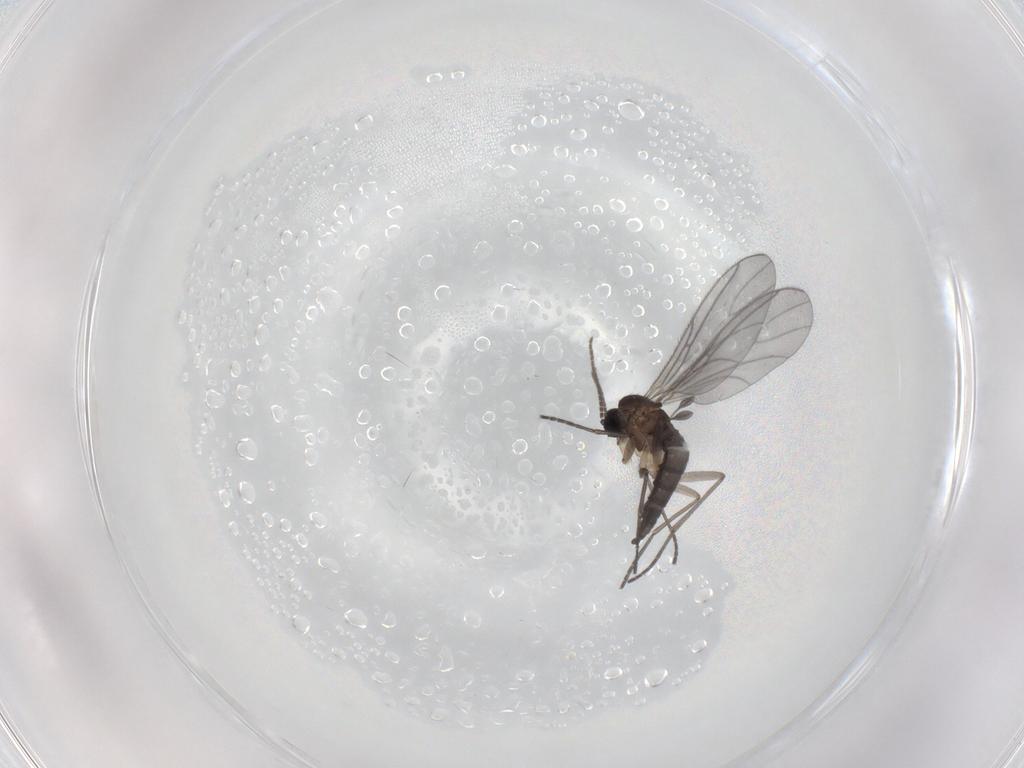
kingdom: Animalia
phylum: Arthropoda
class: Insecta
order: Diptera
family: Sciaridae
